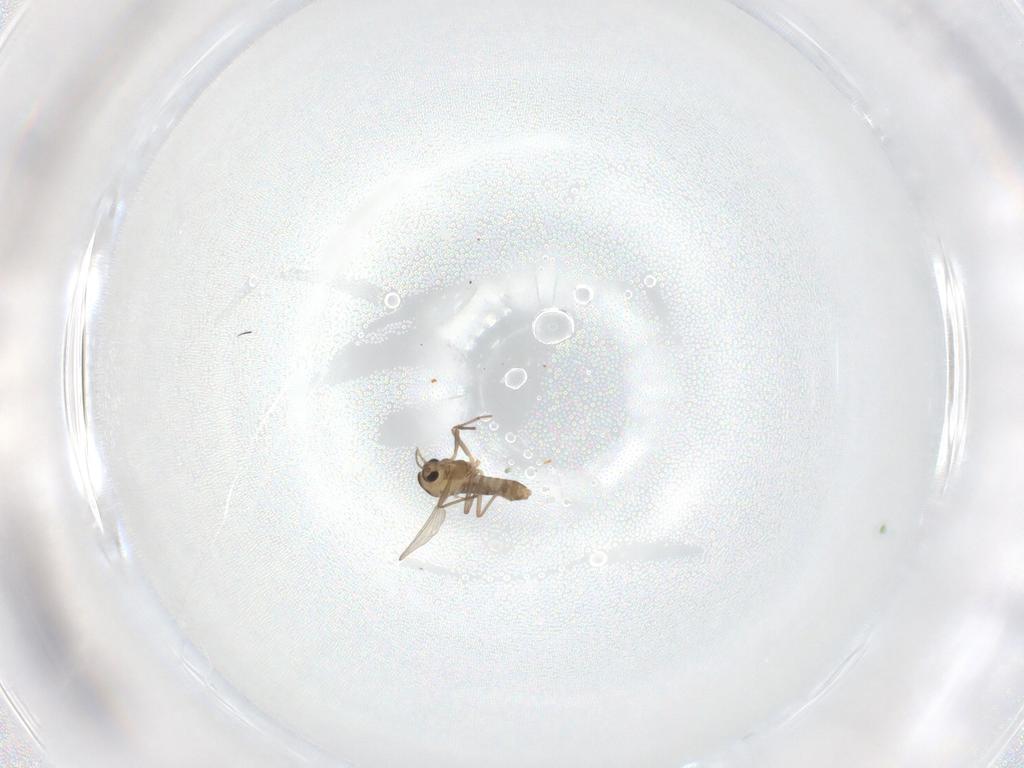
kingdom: Animalia
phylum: Arthropoda
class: Insecta
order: Diptera
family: Chironomidae
